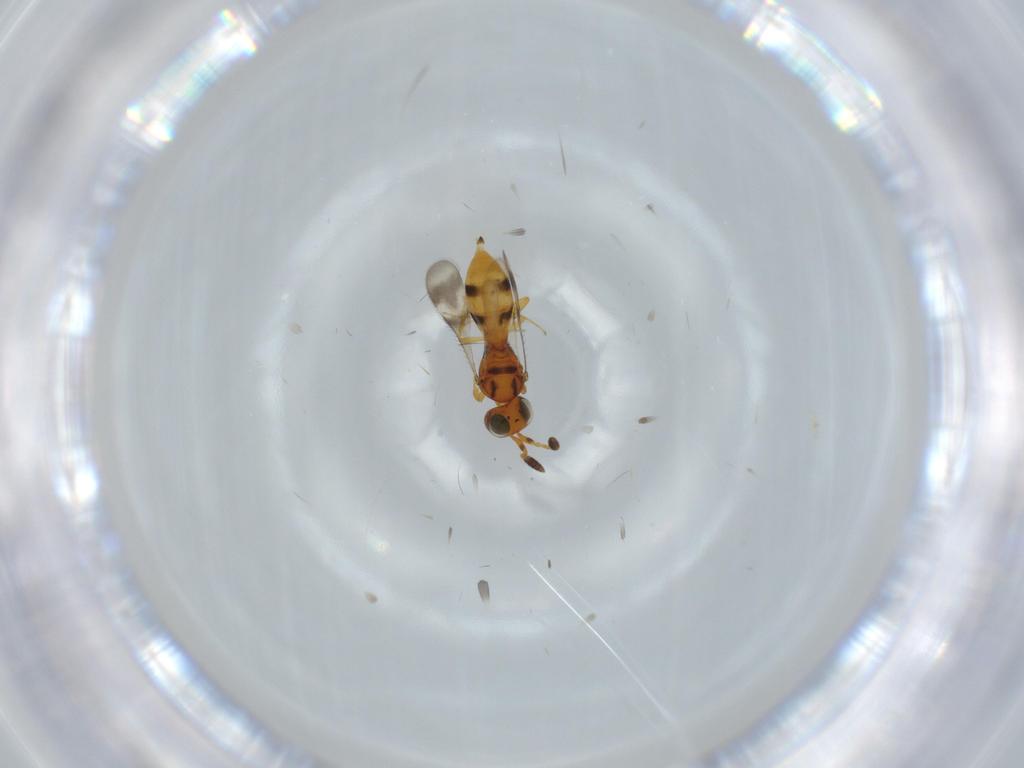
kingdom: Animalia
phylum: Arthropoda
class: Insecta
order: Hymenoptera
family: Scelionidae
